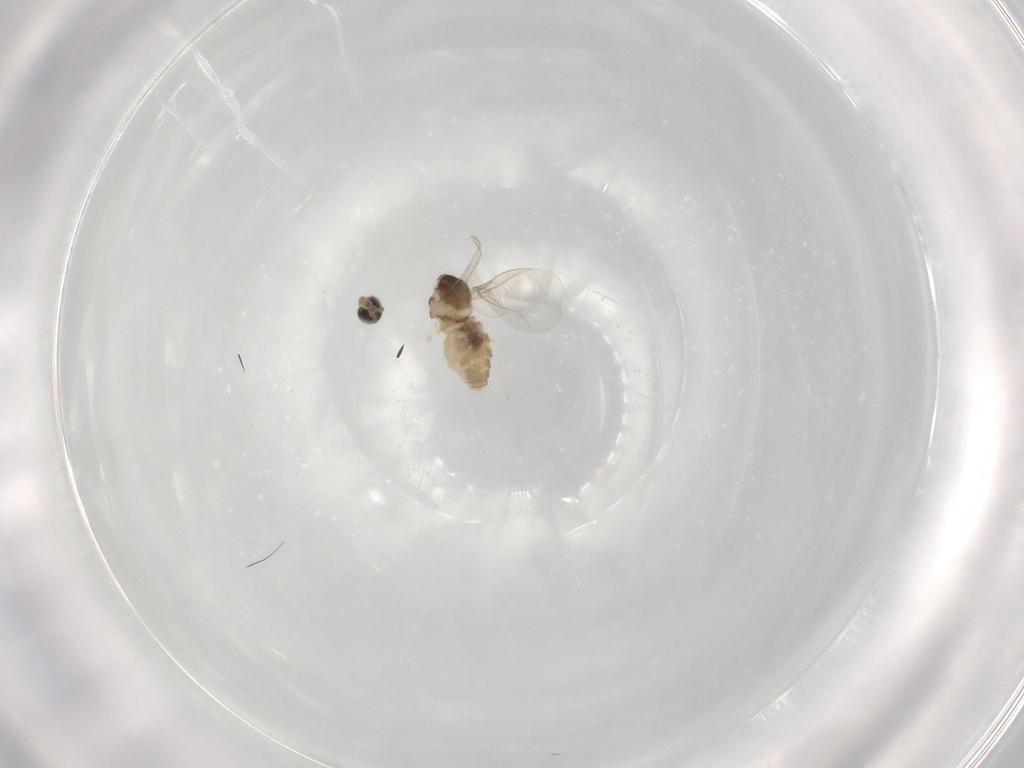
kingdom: Animalia
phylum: Arthropoda
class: Insecta
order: Diptera
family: Cecidomyiidae
